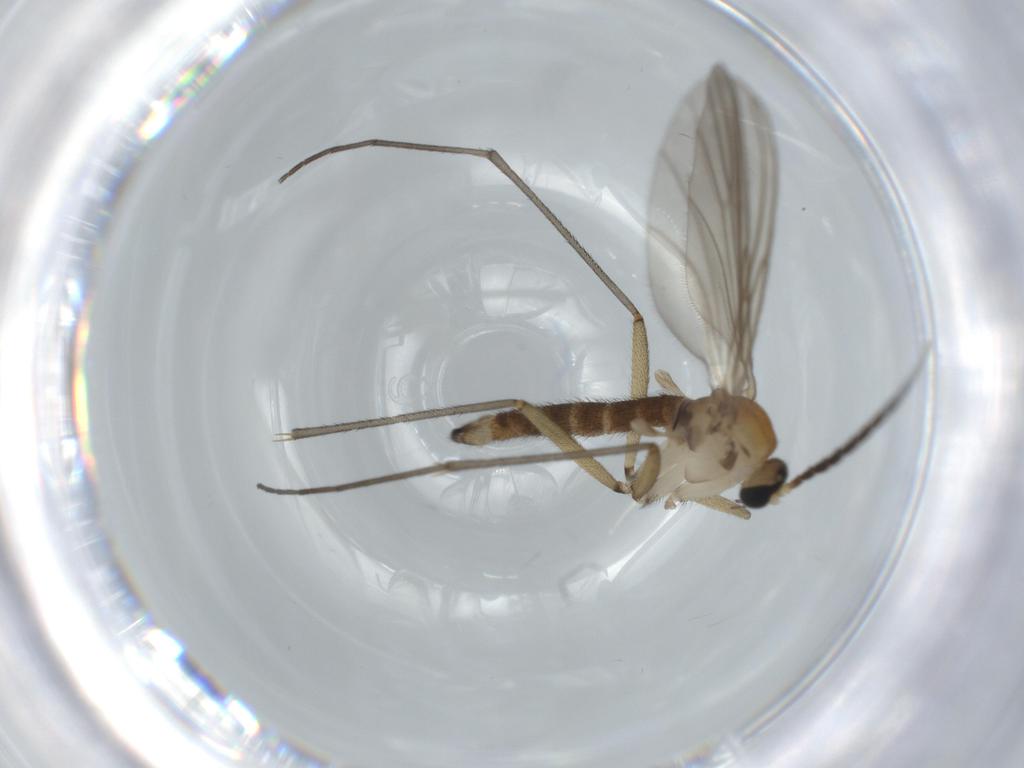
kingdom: Animalia
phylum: Arthropoda
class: Insecta
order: Diptera
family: Sciaridae
